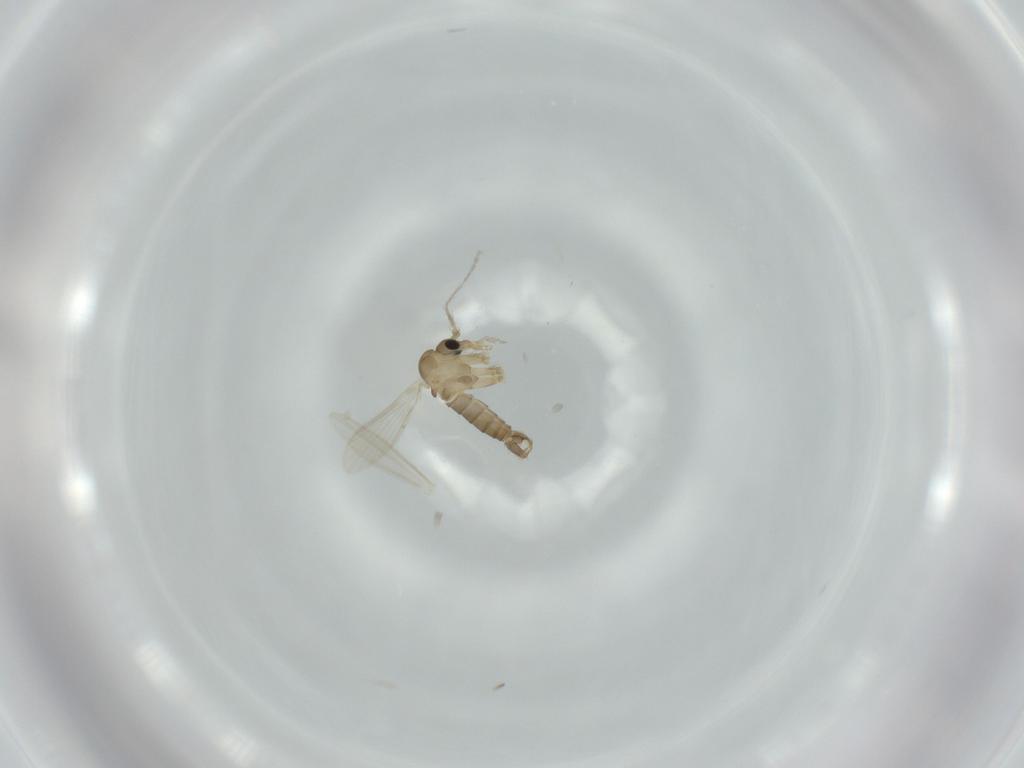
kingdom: Animalia
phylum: Arthropoda
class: Insecta
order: Diptera
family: Psychodidae
